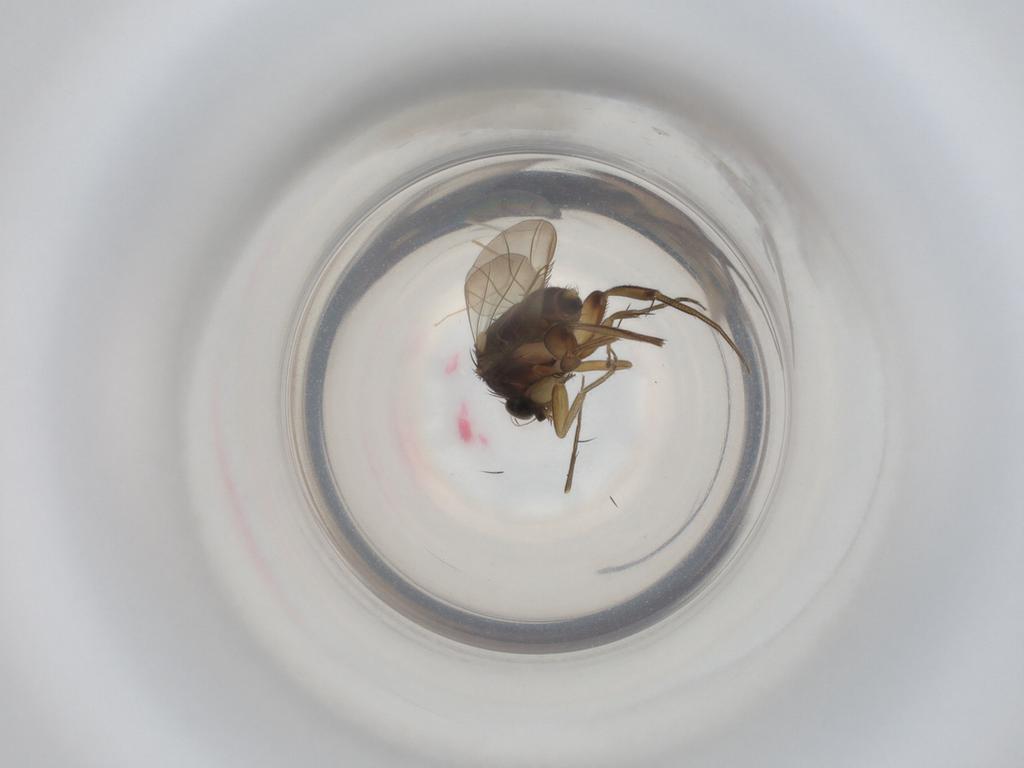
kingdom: Animalia
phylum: Arthropoda
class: Insecta
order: Diptera
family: Phoridae
